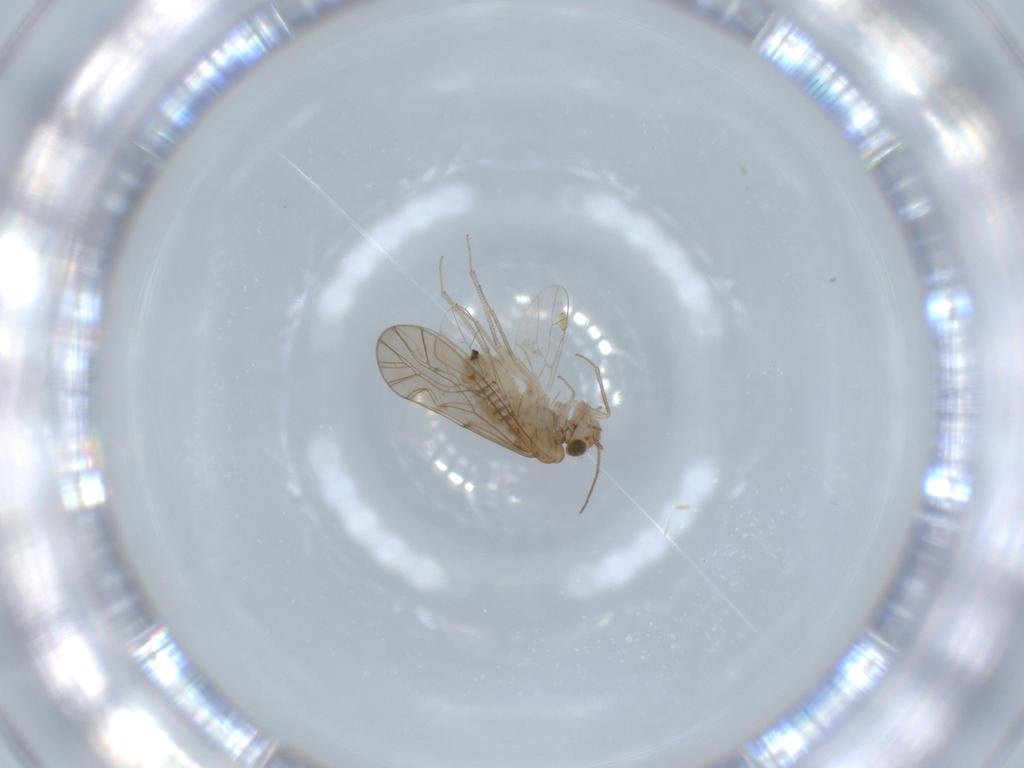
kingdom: Animalia
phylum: Arthropoda
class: Insecta
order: Psocodea
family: Lachesillidae
